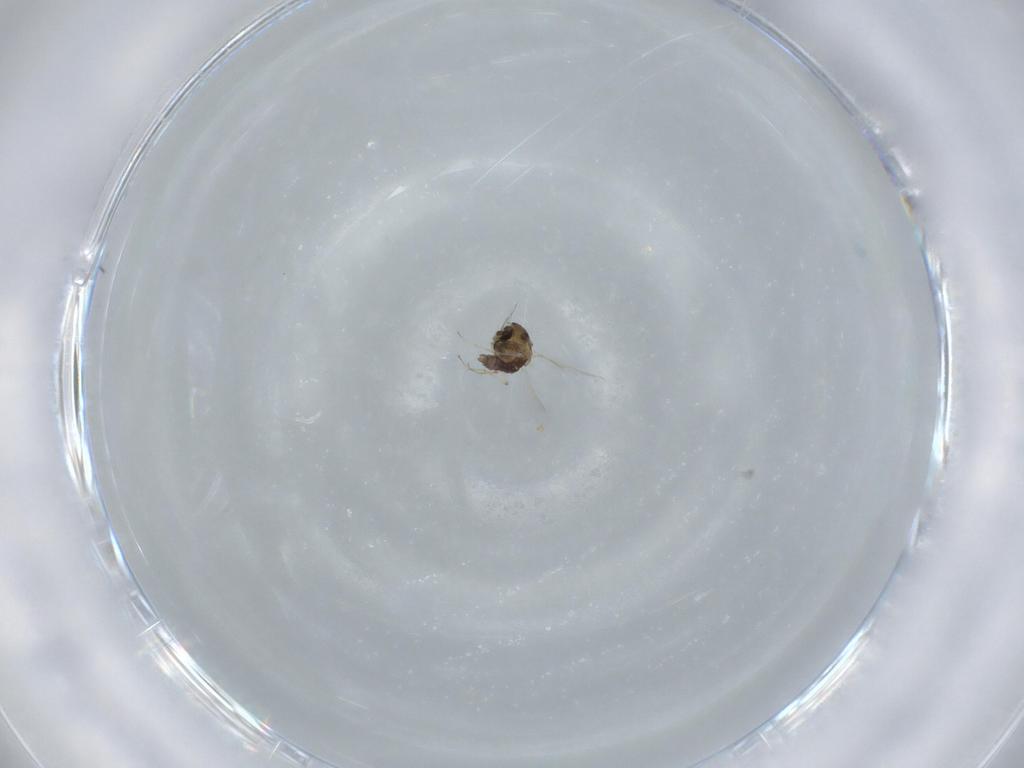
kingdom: Animalia
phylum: Arthropoda
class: Insecta
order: Diptera
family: Chironomidae
